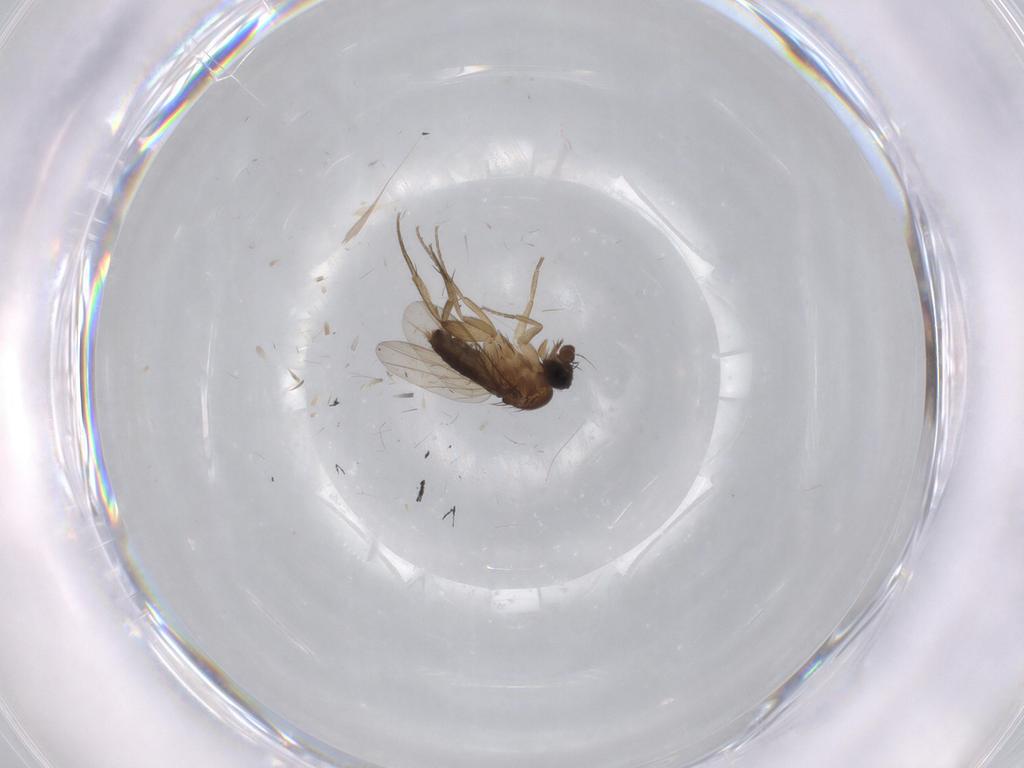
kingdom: Animalia
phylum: Arthropoda
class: Insecta
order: Diptera
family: Phoridae
